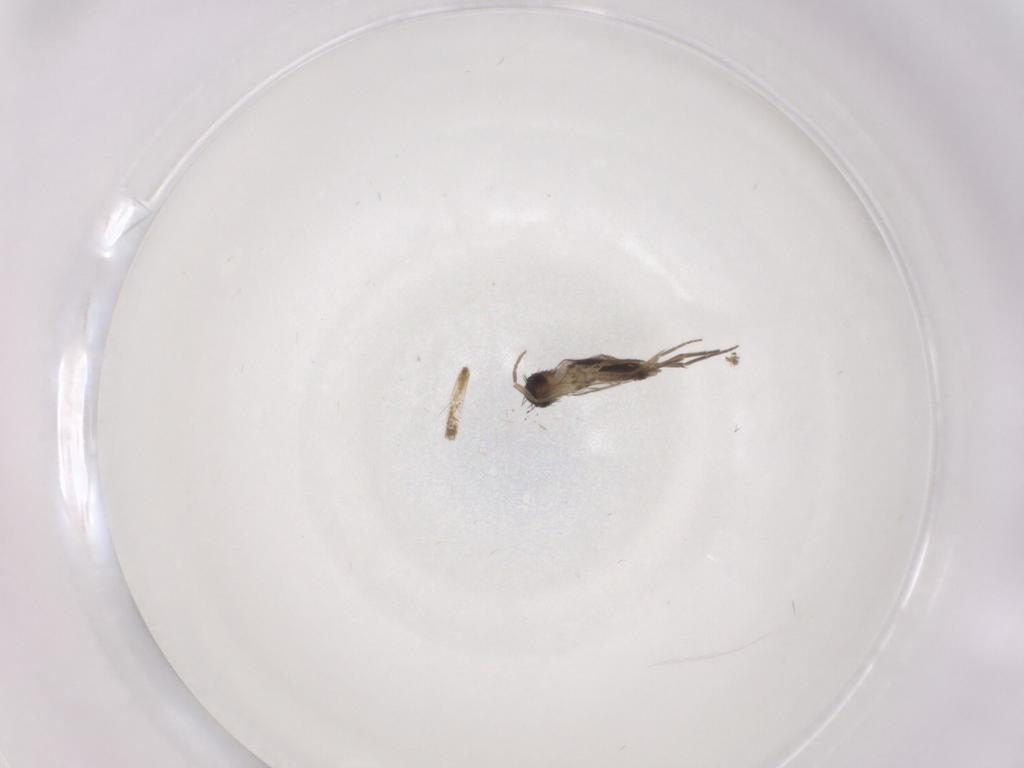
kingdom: Animalia
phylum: Arthropoda
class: Insecta
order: Diptera
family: Phoridae
